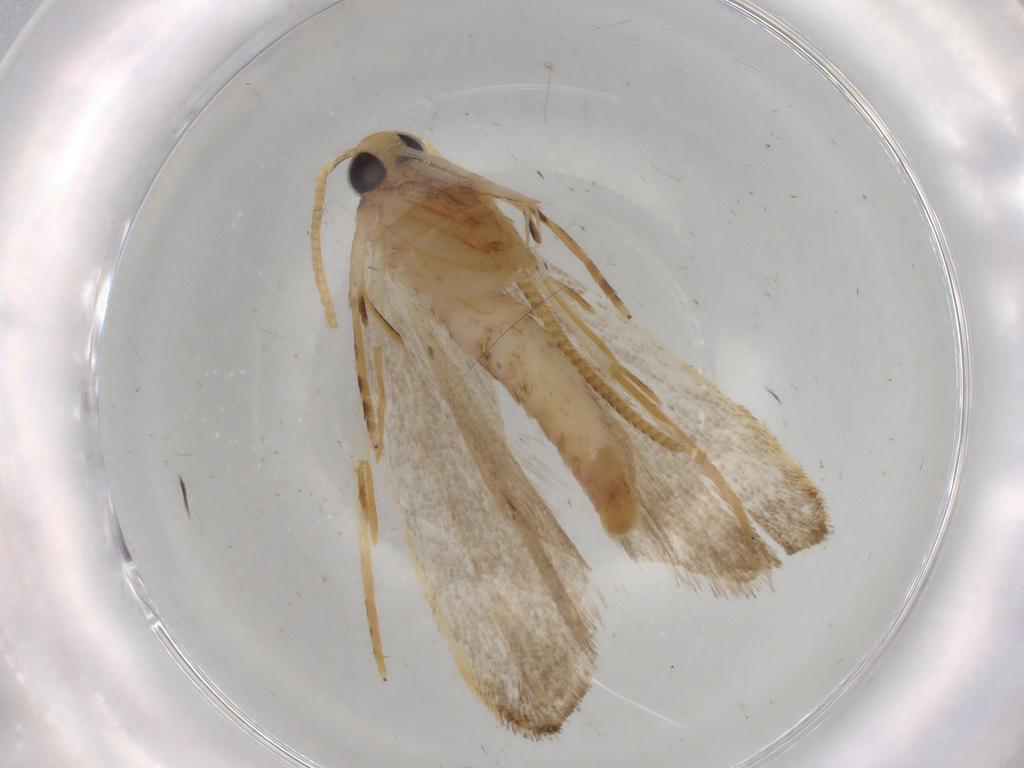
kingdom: Animalia
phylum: Arthropoda
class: Insecta
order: Lepidoptera
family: Autostichidae
